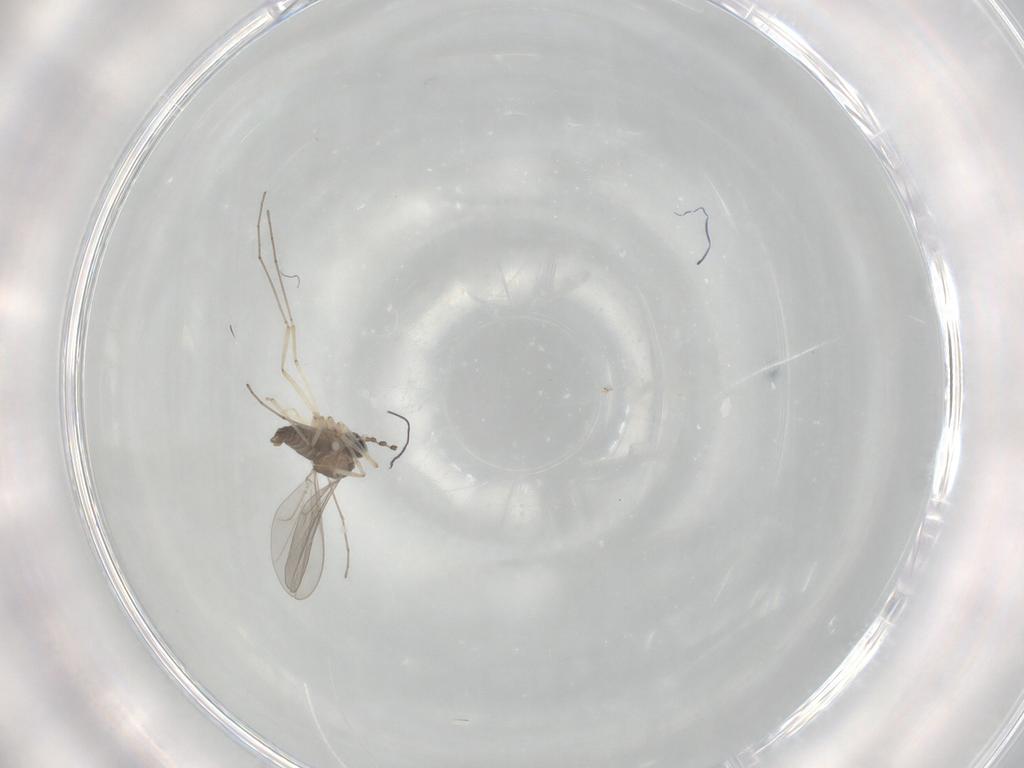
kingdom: Animalia
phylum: Arthropoda
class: Insecta
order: Diptera
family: Cecidomyiidae
